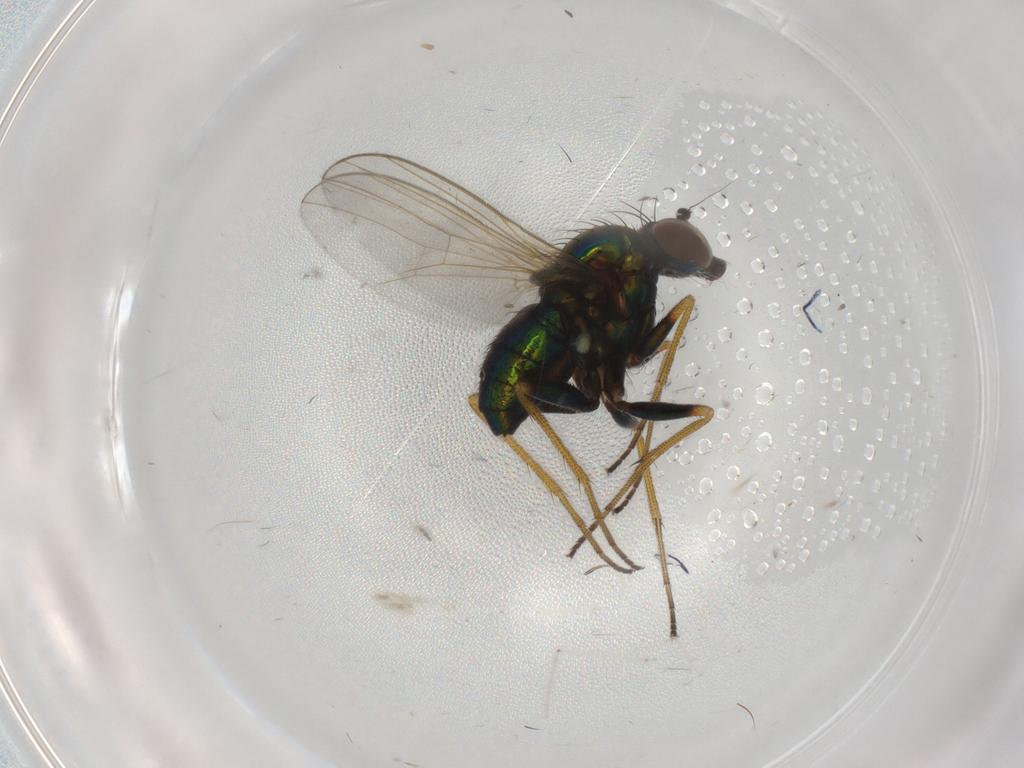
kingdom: Animalia
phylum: Arthropoda
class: Insecta
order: Diptera
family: Dolichopodidae
